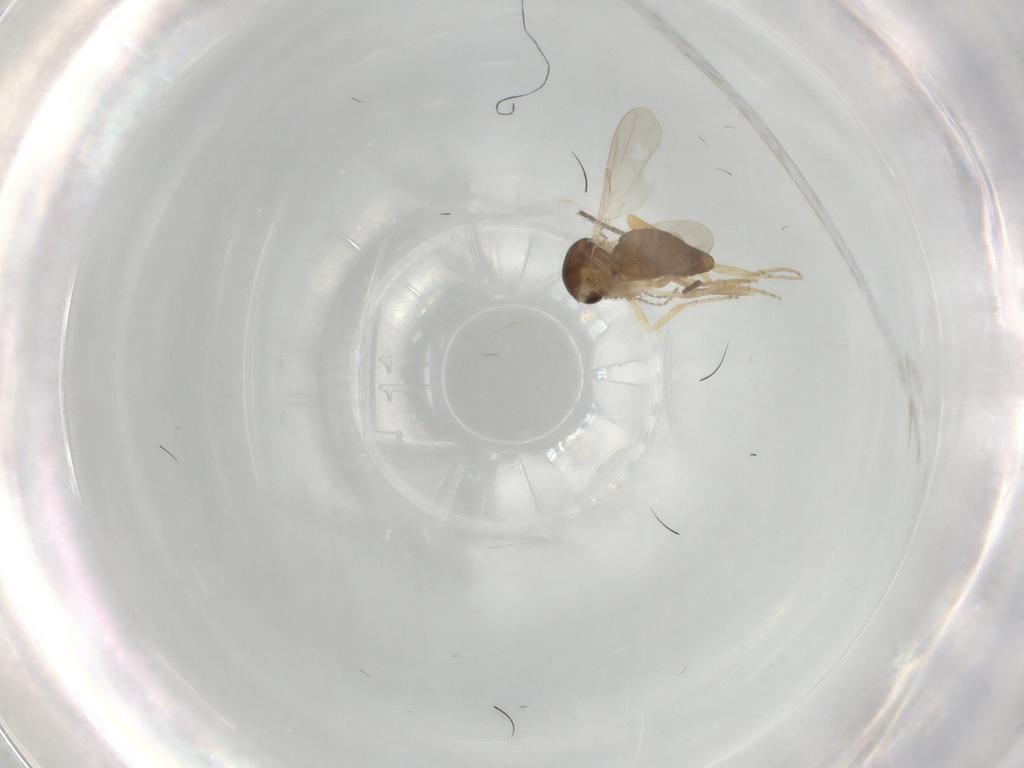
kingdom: Animalia
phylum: Arthropoda
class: Insecta
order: Diptera
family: Ceratopogonidae
